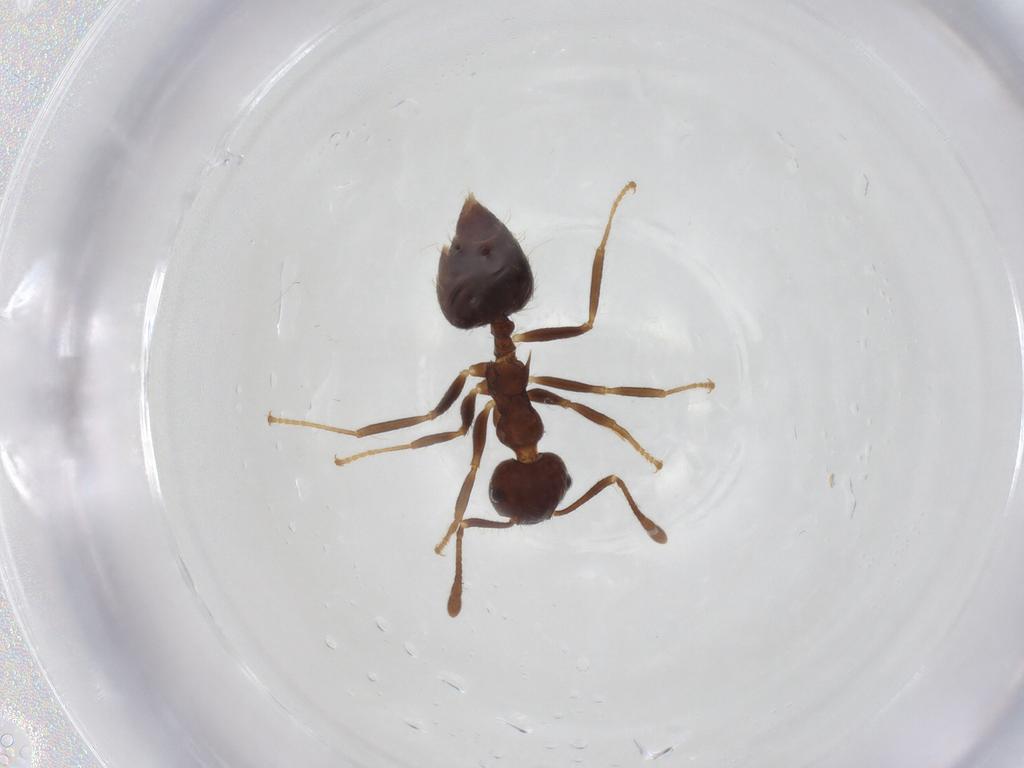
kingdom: Animalia
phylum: Arthropoda
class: Insecta
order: Hymenoptera
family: Formicidae
